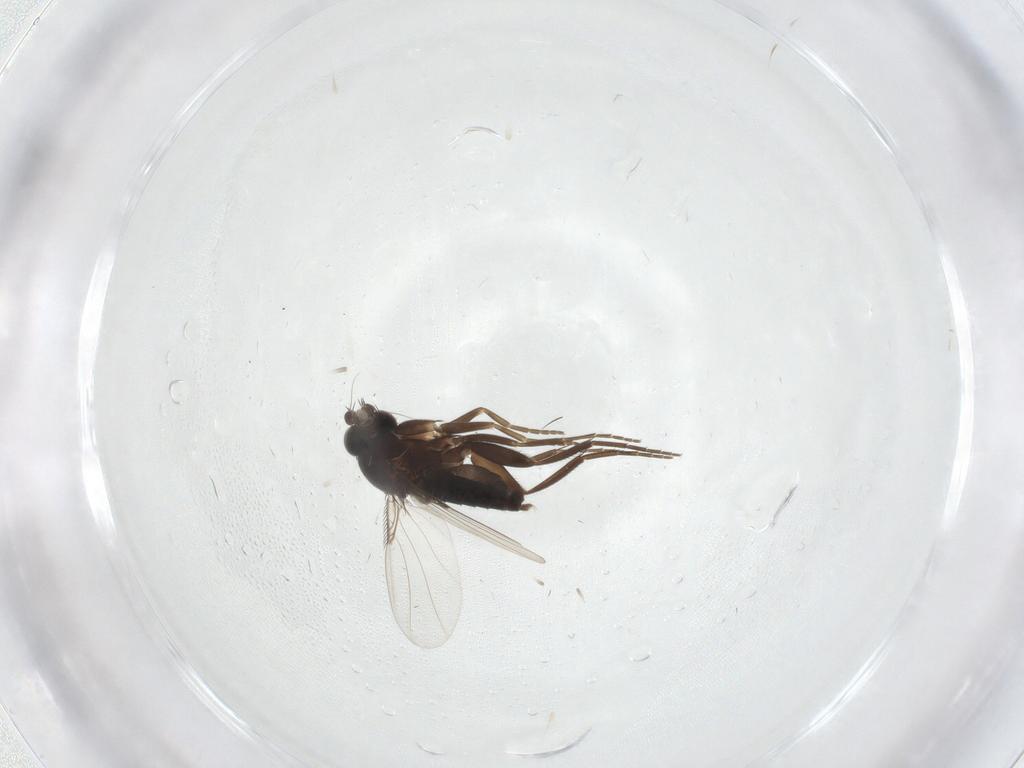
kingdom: Animalia
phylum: Arthropoda
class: Insecta
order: Diptera
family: Phoridae
